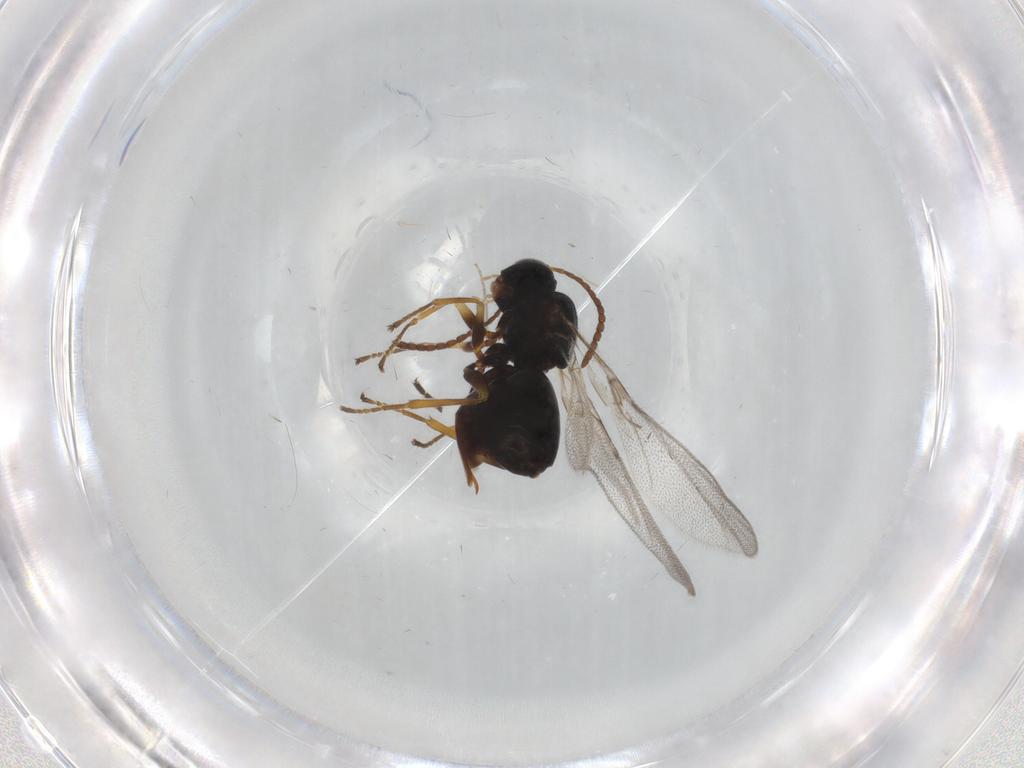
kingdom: Animalia
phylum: Arthropoda
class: Insecta
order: Hymenoptera
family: Cynipidae
